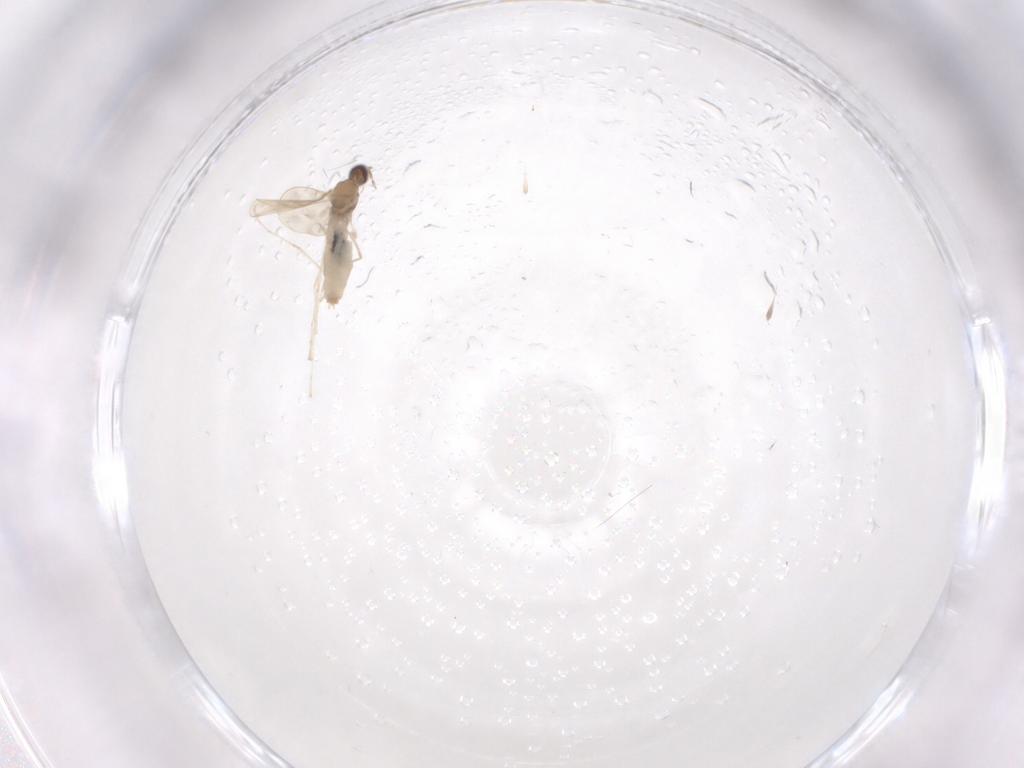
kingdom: Animalia
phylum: Arthropoda
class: Insecta
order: Diptera
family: Cecidomyiidae
